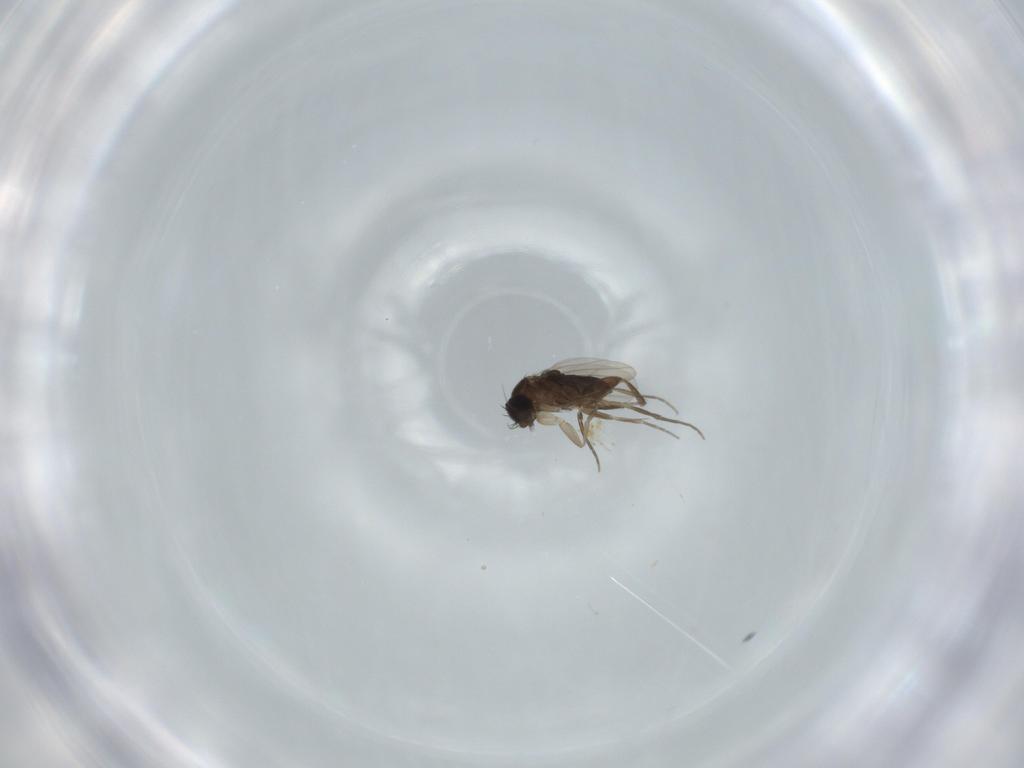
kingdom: Animalia
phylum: Arthropoda
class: Insecta
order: Diptera
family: Phoridae
